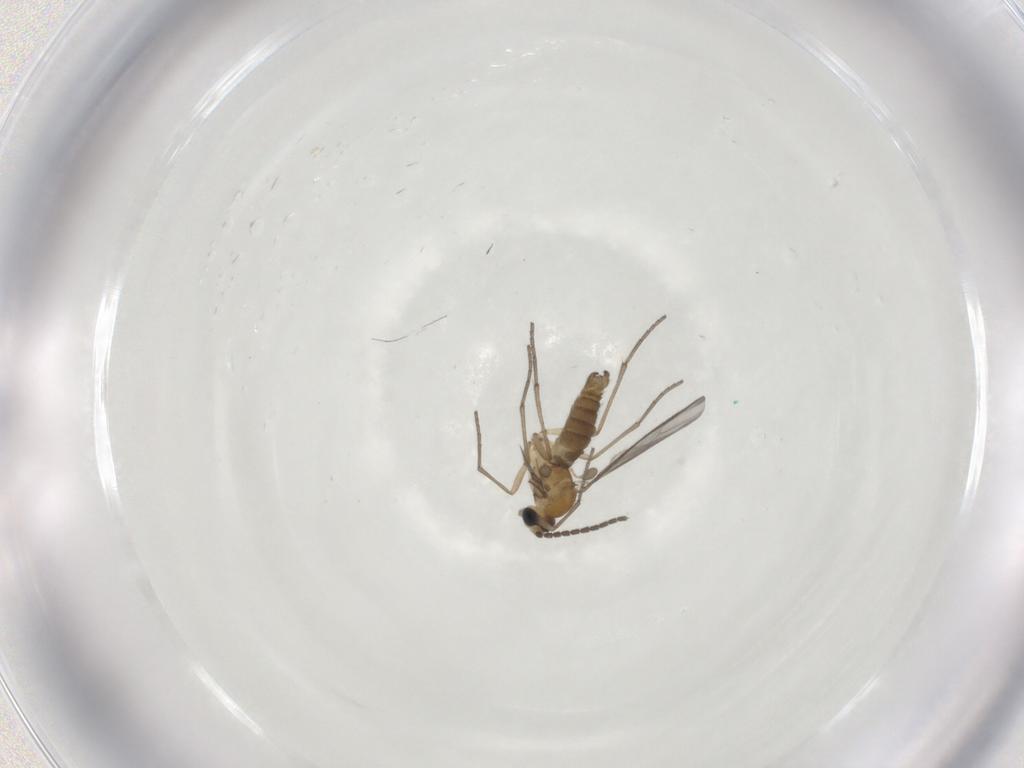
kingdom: Animalia
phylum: Arthropoda
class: Insecta
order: Diptera
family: Sciaridae
